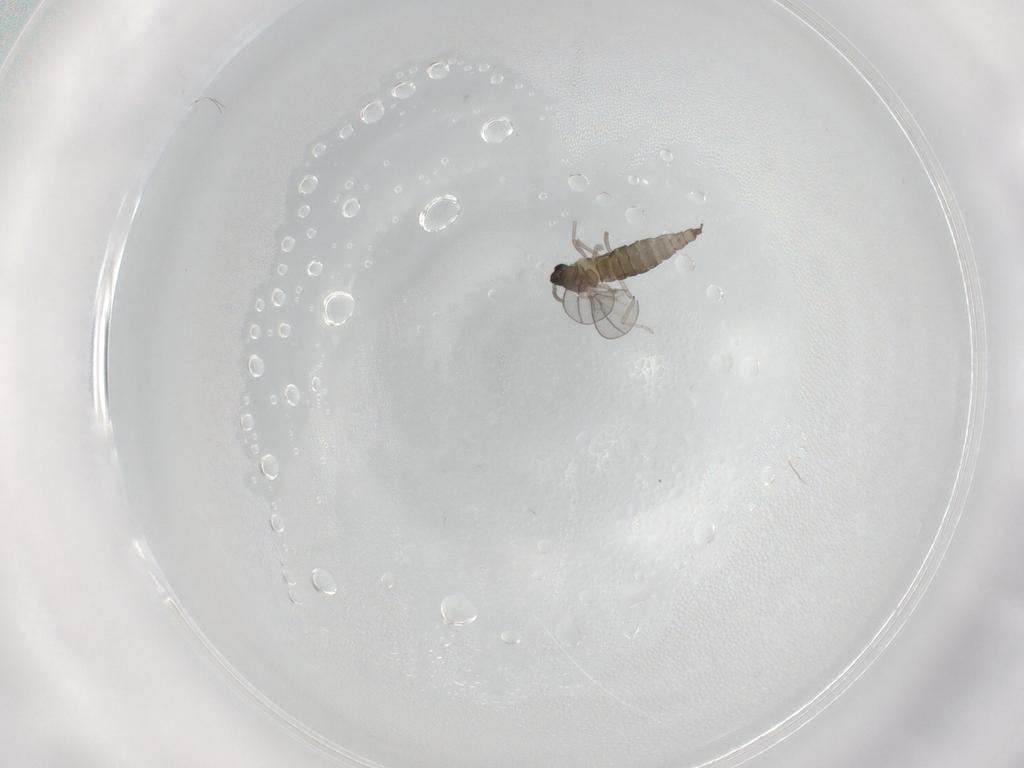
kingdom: Animalia
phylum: Arthropoda
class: Insecta
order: Diptera
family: Cecidomyiidae
